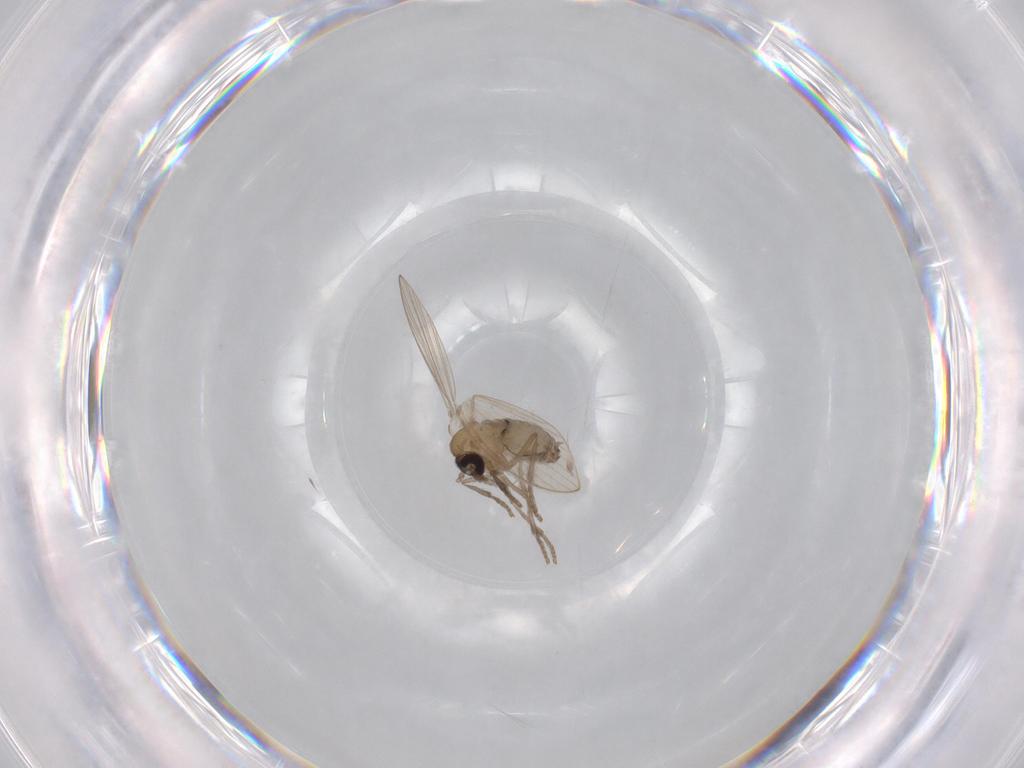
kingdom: Animalia
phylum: Arthropoda
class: Insecta
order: Diptera
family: Psychodidae
